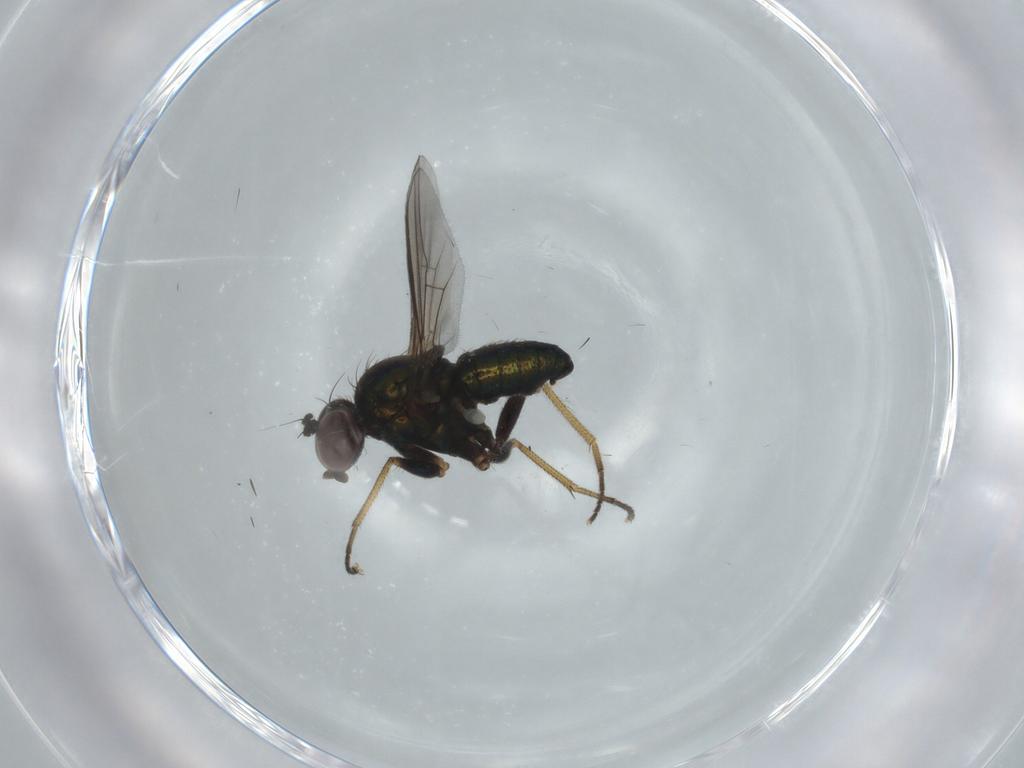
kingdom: Animalia
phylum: Arthropoda
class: Insecta
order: Diptera
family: Dolichopodidae
